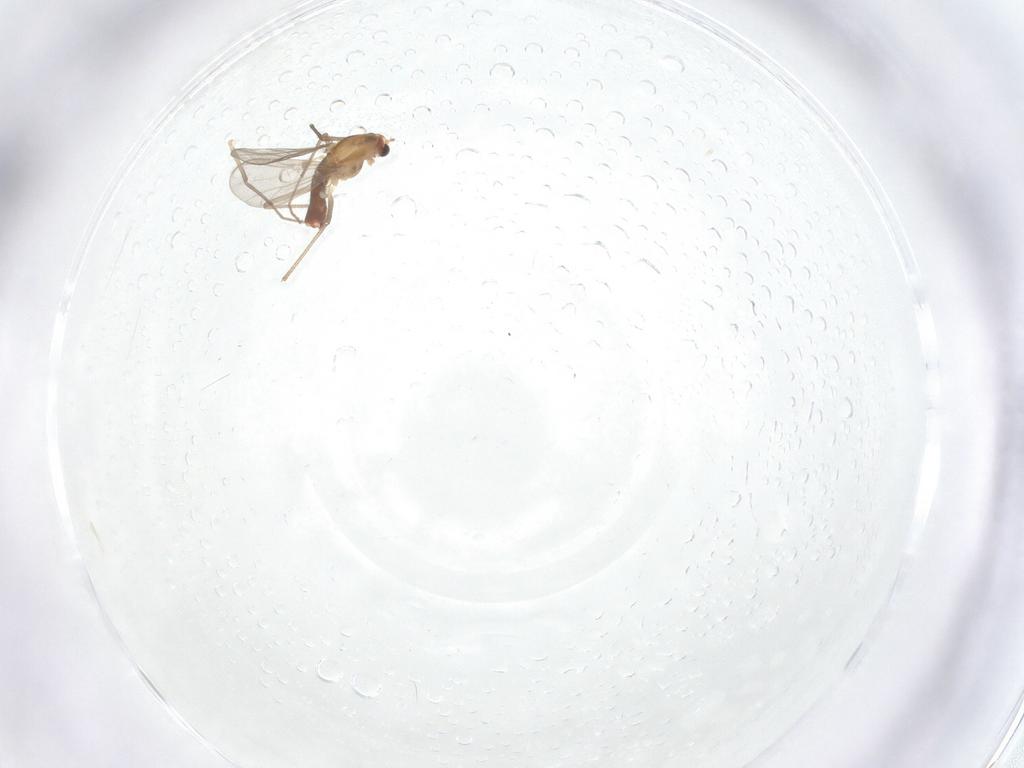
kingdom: Animalia
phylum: Arthropoda
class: Insecta
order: Diptera
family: Chironomidae
